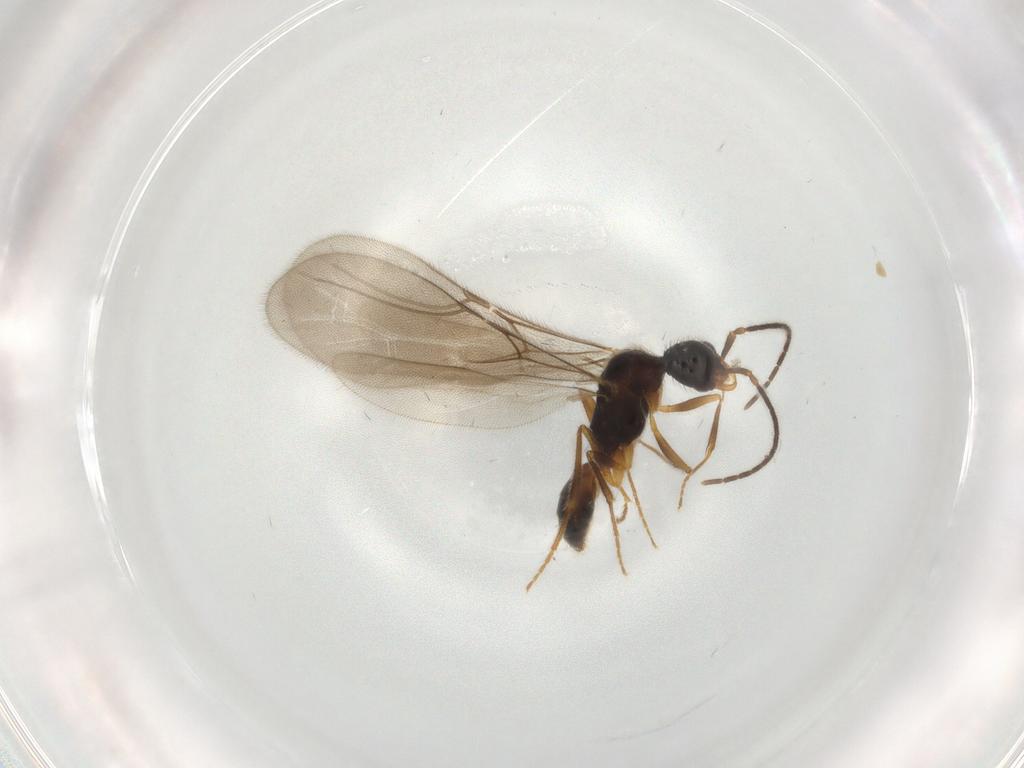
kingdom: Animalia
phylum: Arthropoda
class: Insecta
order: Hymenoptera
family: Bethylidae
